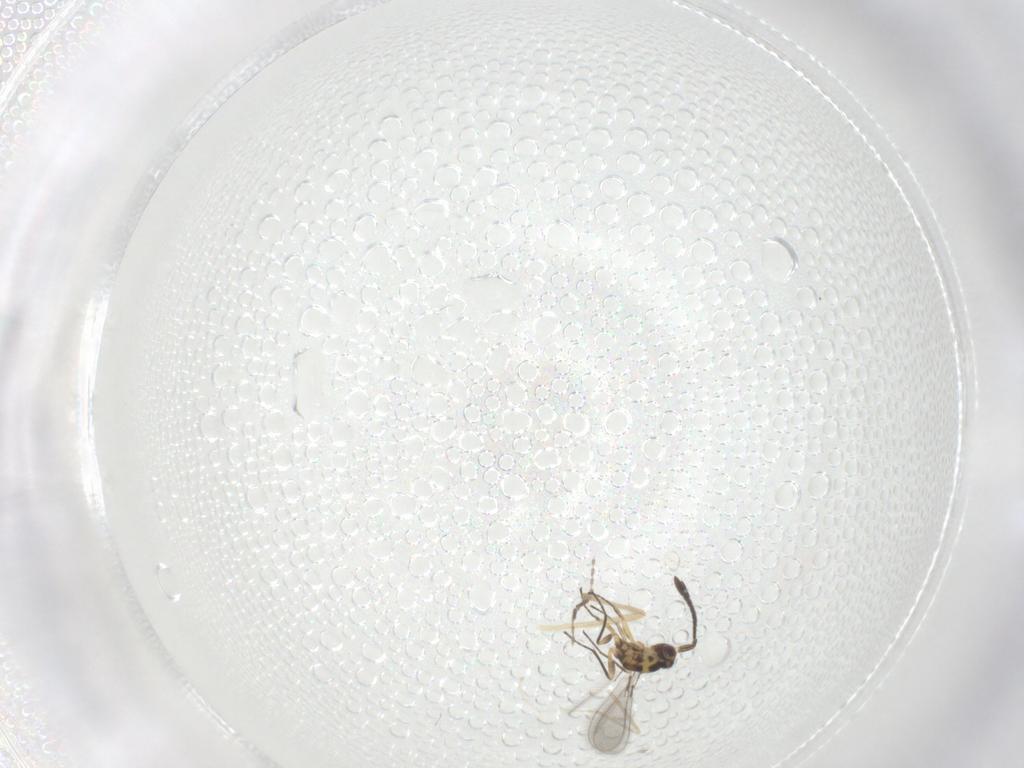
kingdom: Animalia
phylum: Arthropoda
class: Insecta
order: Hymenoptera
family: Mymaridae
